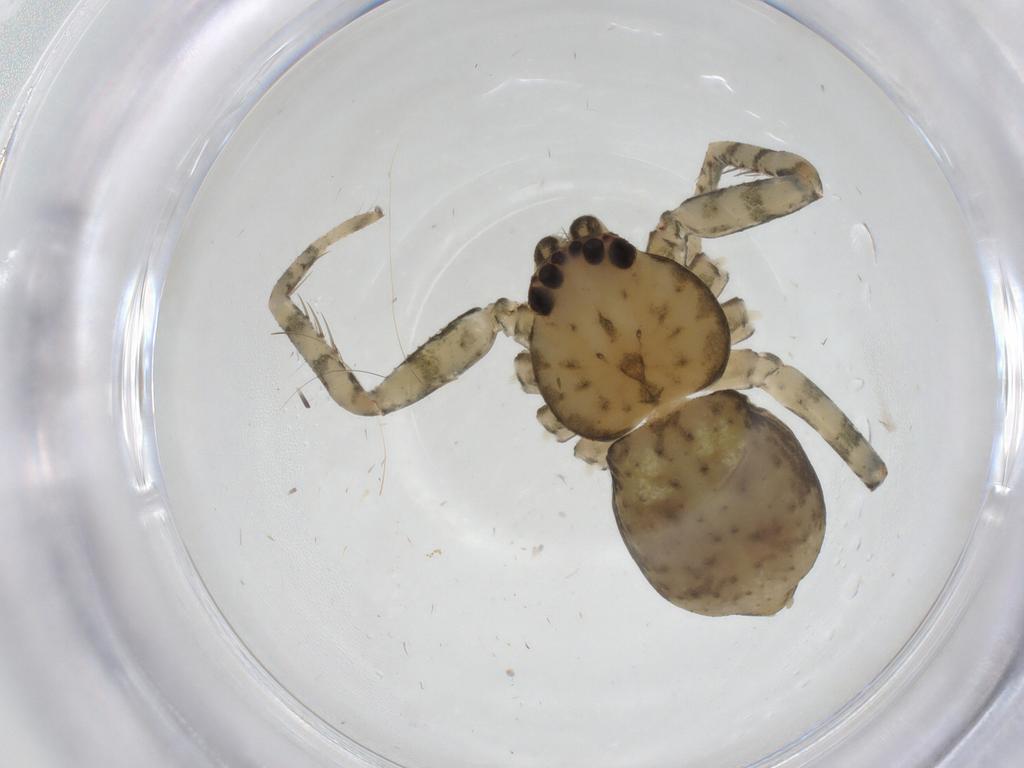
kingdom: Animalia
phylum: Arthropoda
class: Arachnida
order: Araneae
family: Selenopidae
